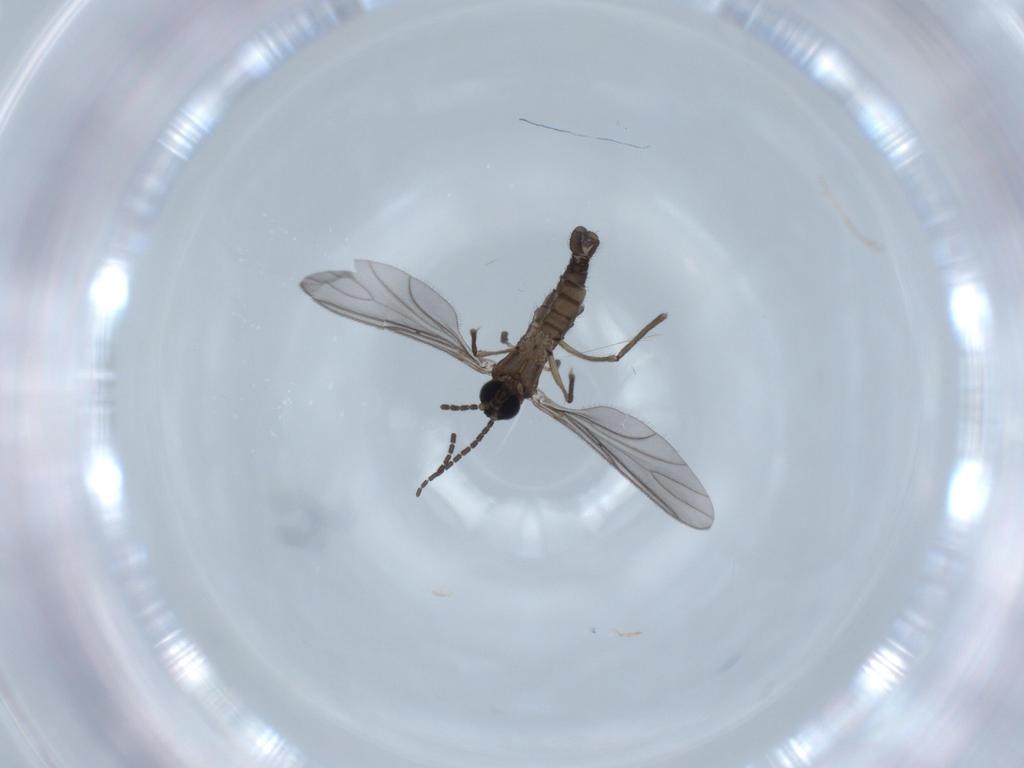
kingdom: Animalia
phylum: Arthropoda
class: Insecta
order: Diptera
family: Sciaridae
